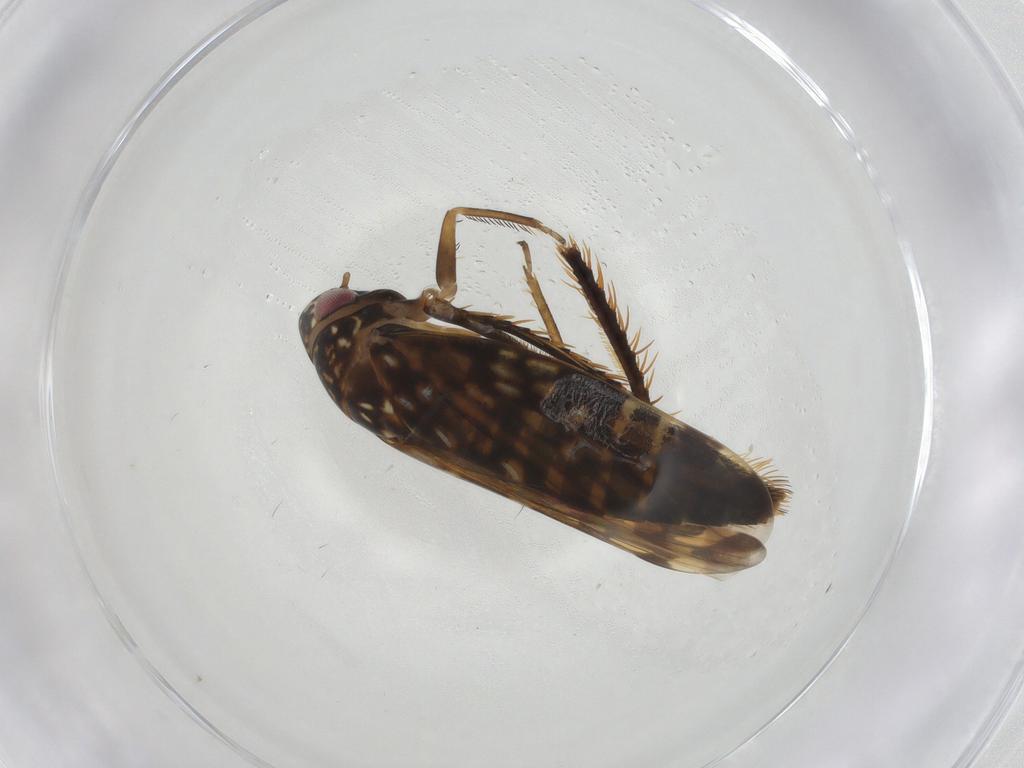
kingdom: Animalia
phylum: Arthropoda
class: Insecta
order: Hemiptera
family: Cicadellidae
